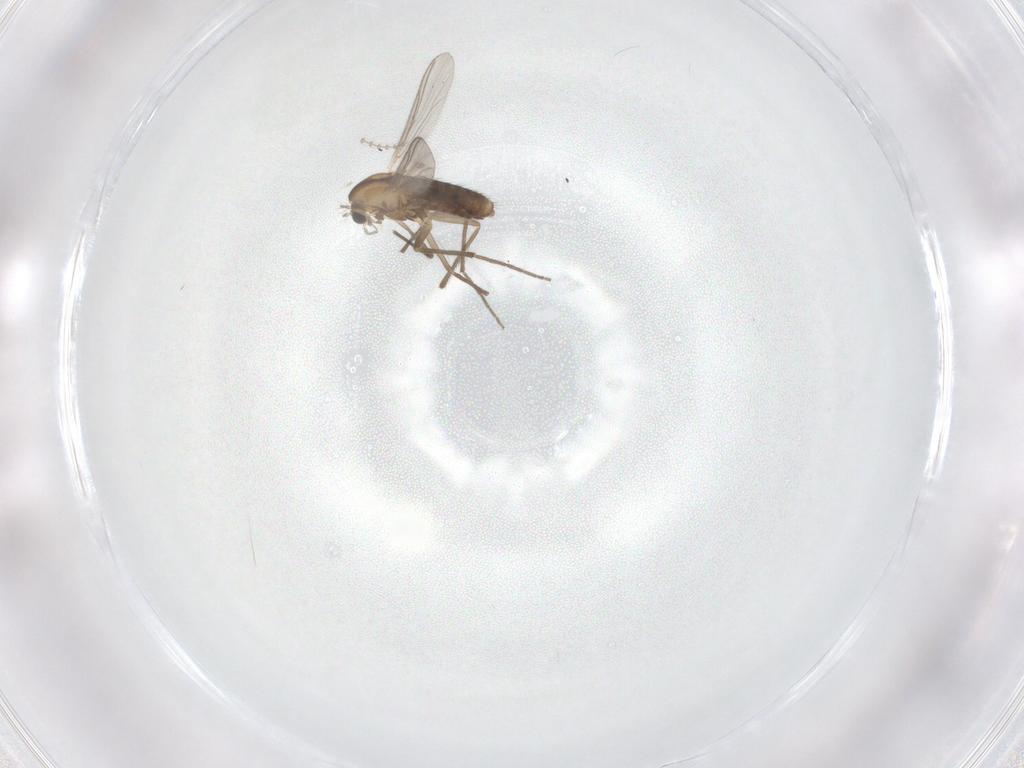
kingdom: Animalia
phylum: Arthropoda
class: Insecta
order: Diptera
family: Chironomidae
